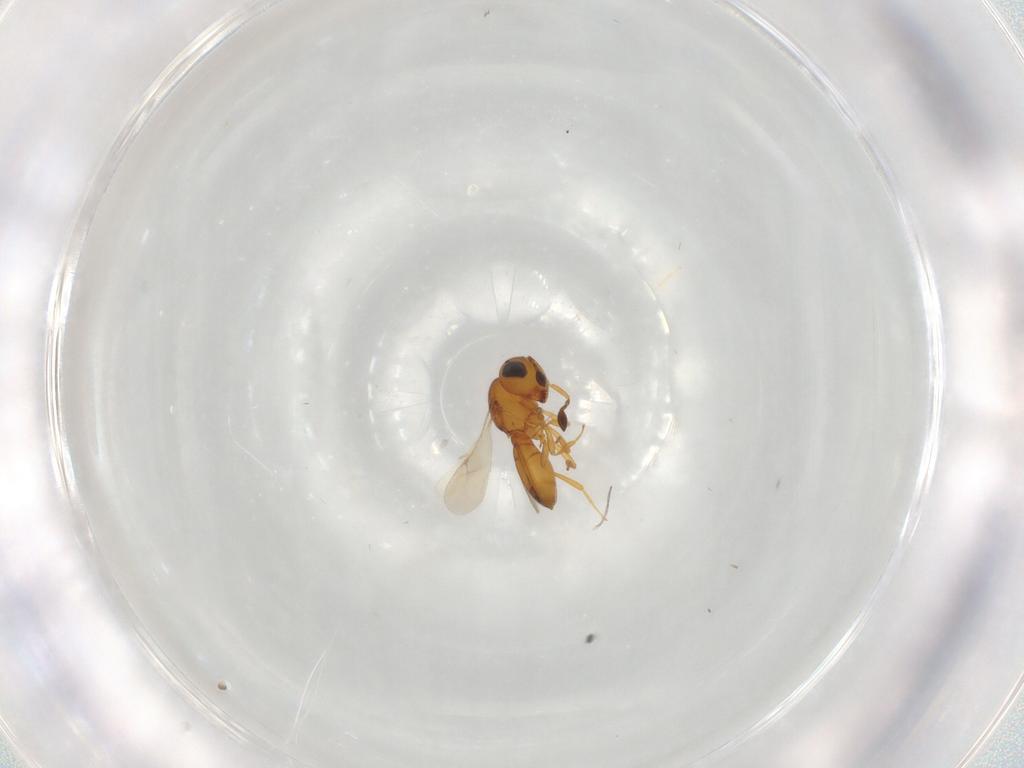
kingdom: Animalia
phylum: Arthropoda
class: Insecta
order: Hymenoptera
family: Scelionidae
